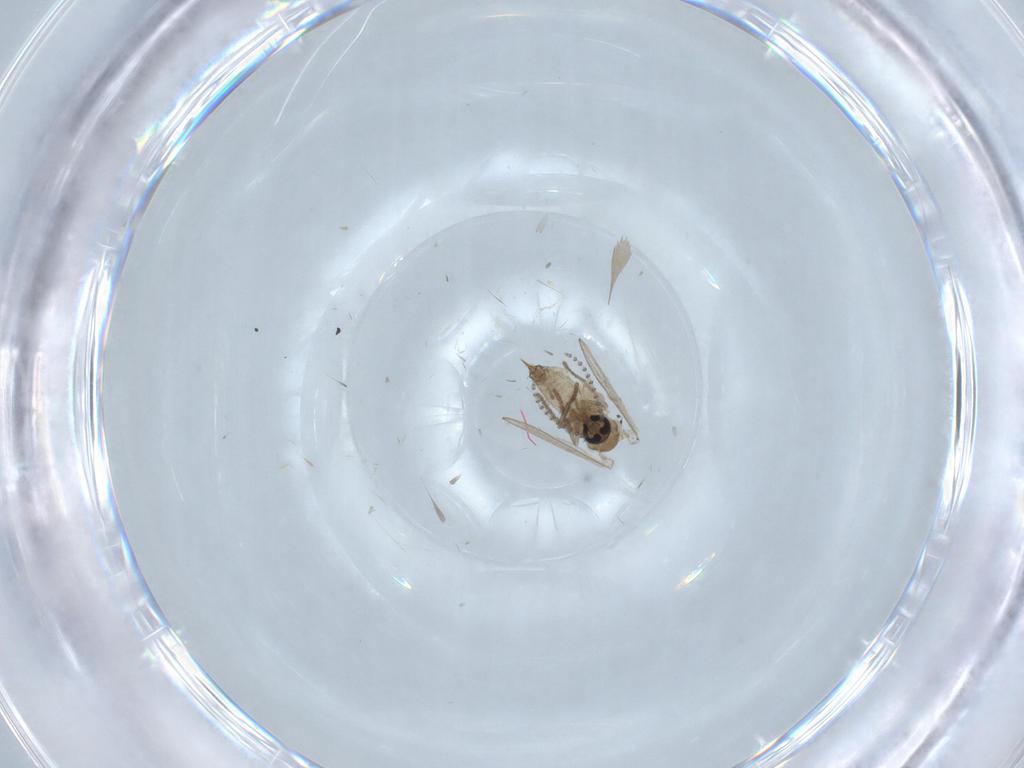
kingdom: Animalia
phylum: Arthropoda
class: Insecta
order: Diptera
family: Psychodidae
